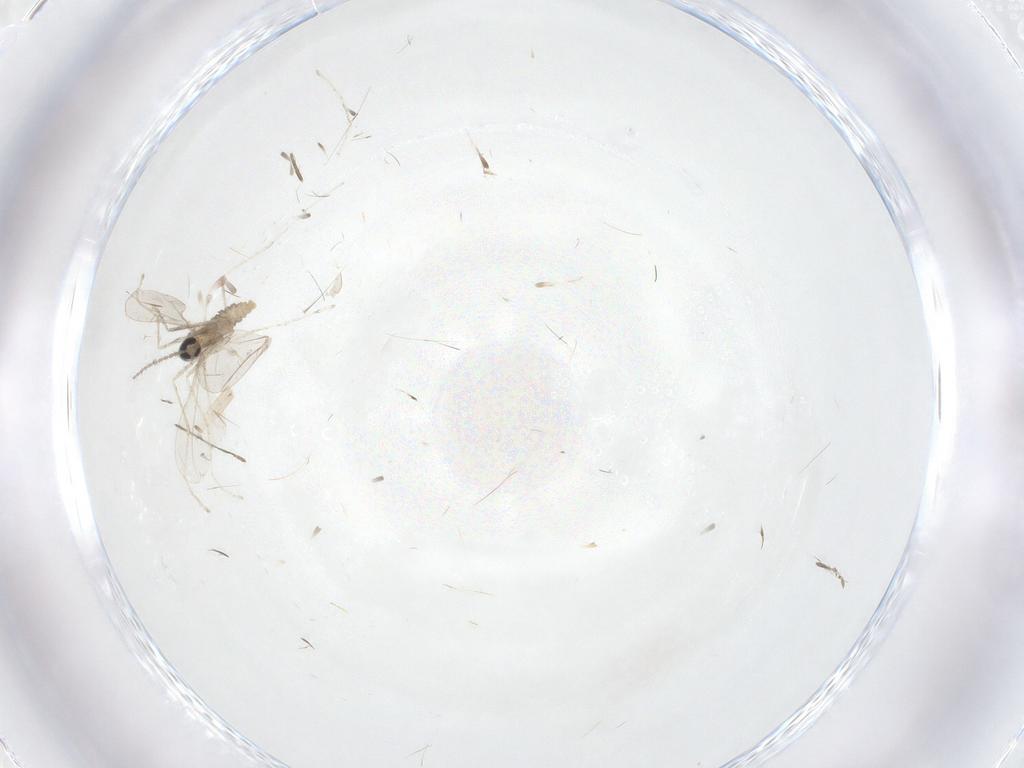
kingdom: Animalia
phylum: Arthropoda
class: Insecta
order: Diptera
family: Cecidomyiidae
